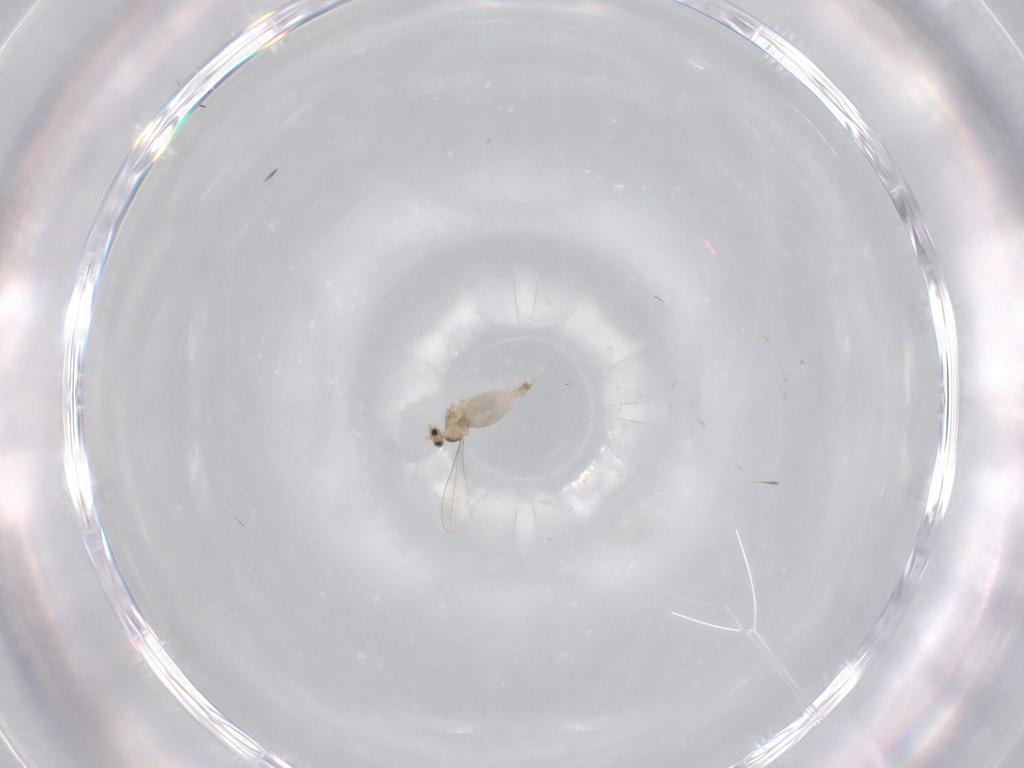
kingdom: Animalia
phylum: Arthropoda
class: Insecta
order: Diptera
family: Cecidomyiidae
